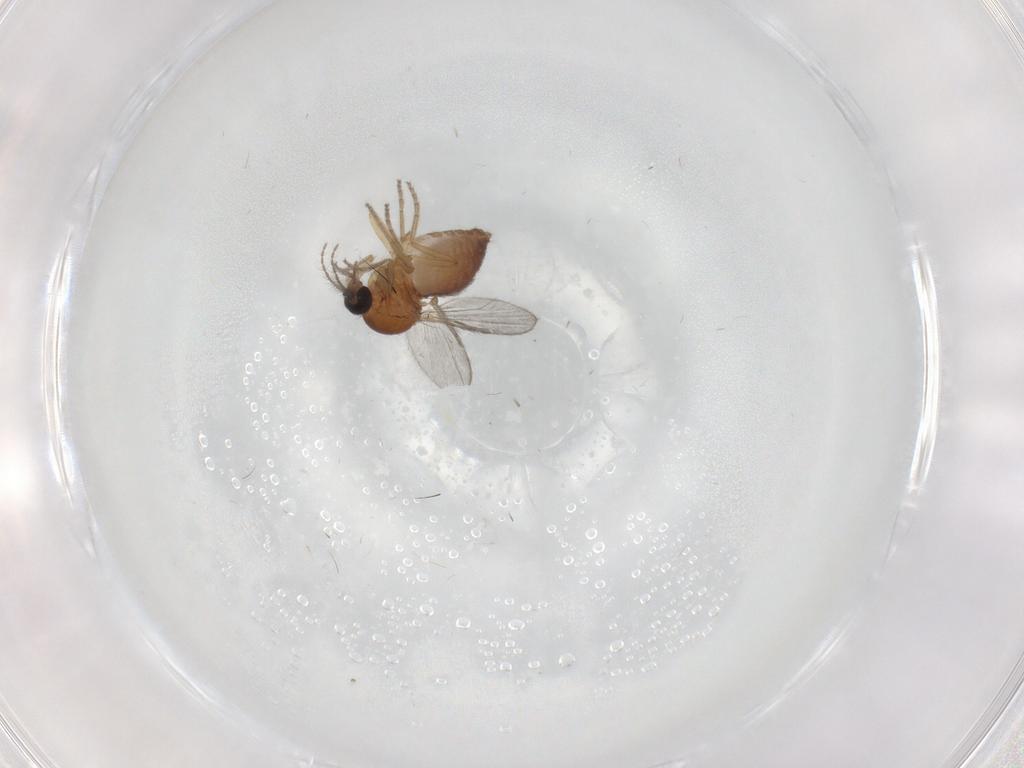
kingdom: Animalia
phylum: Arthropoda
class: Insecta
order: Diptera
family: Ceratopogonidae
